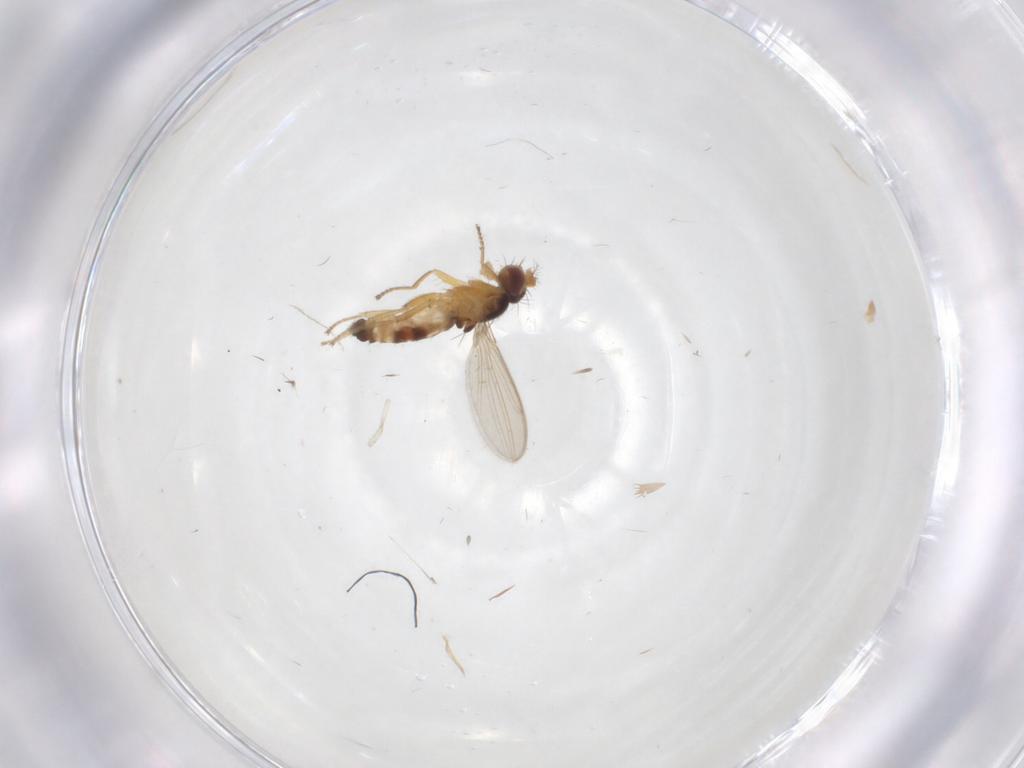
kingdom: Animalia
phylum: Arthropoda
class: Insecta
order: Diptera
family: Periscelididae
